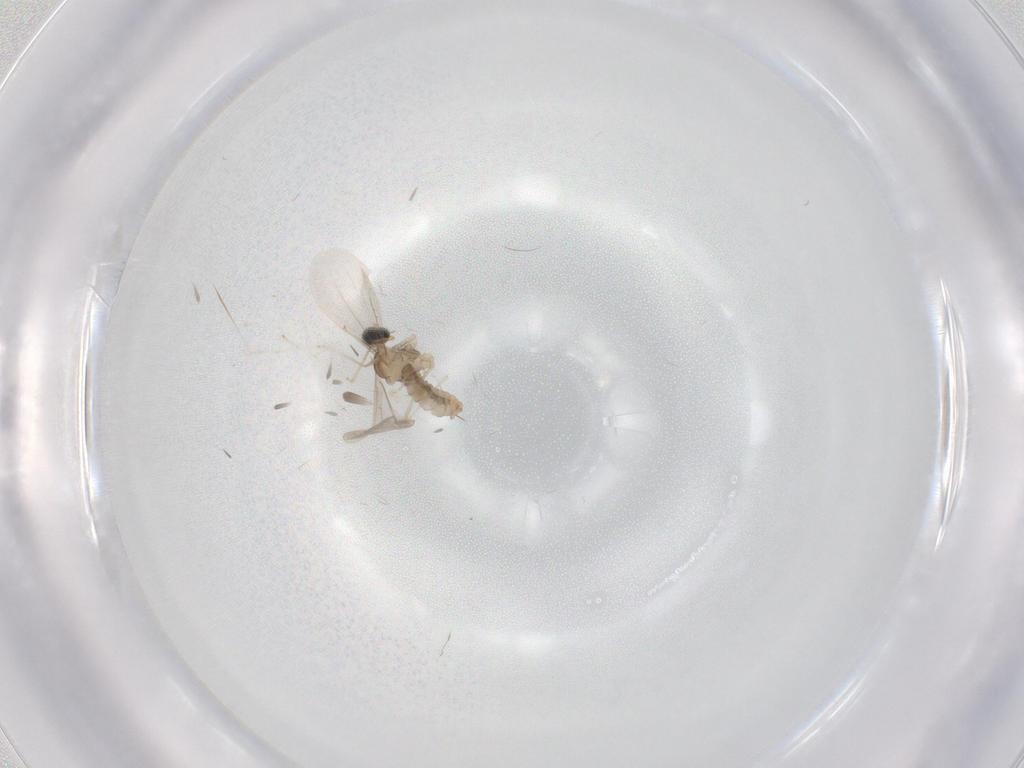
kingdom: Animalia
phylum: Arthropoda
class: Insecta
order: Diptera
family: Cecidomyiidae
